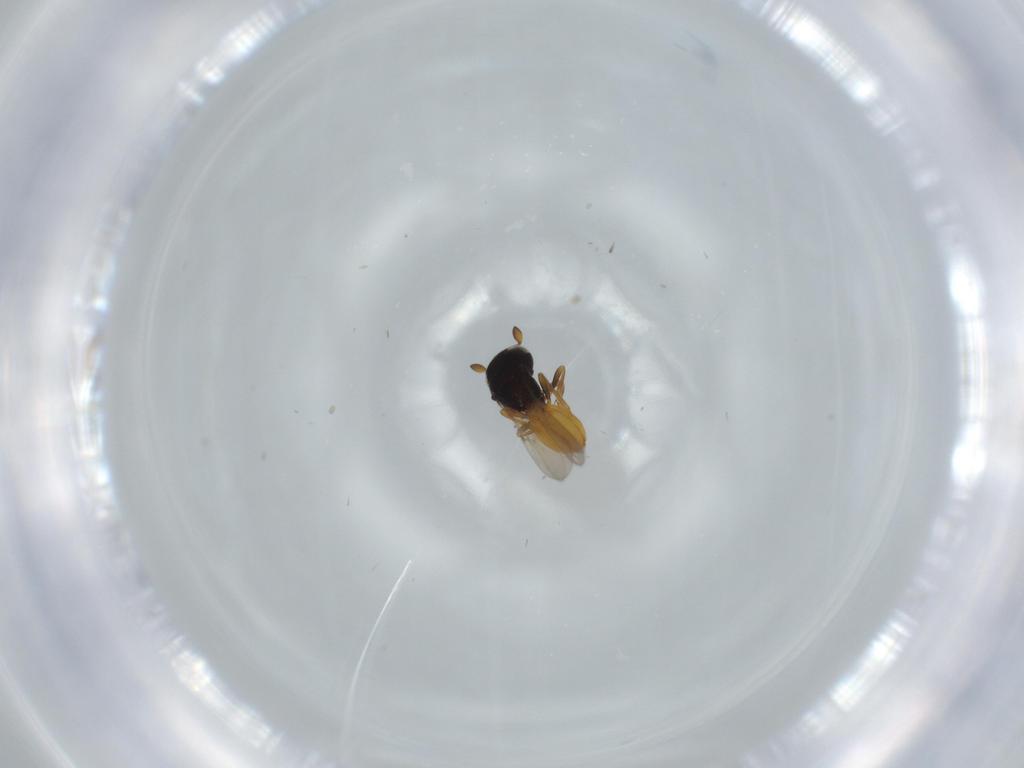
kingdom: Animalia
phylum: Arthropoda
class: Insecta
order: Hymenoptera
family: Scelionidae
